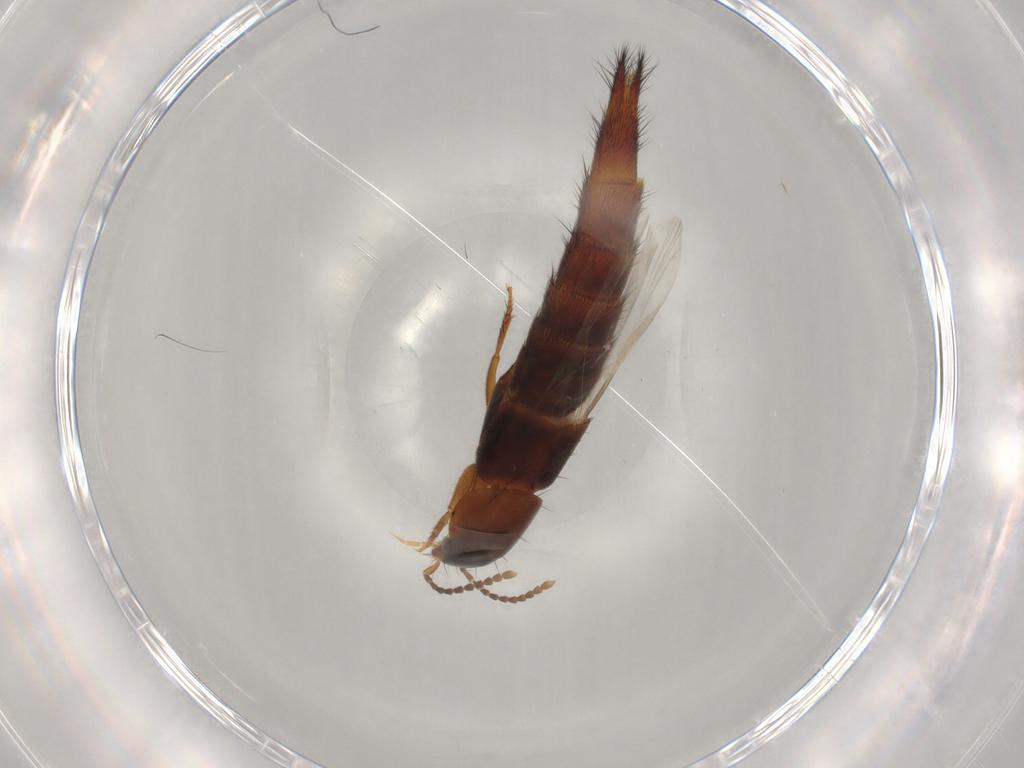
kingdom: Animalia
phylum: Arthropoda
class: Insecta
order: Coleoptera
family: Staphylinidae
